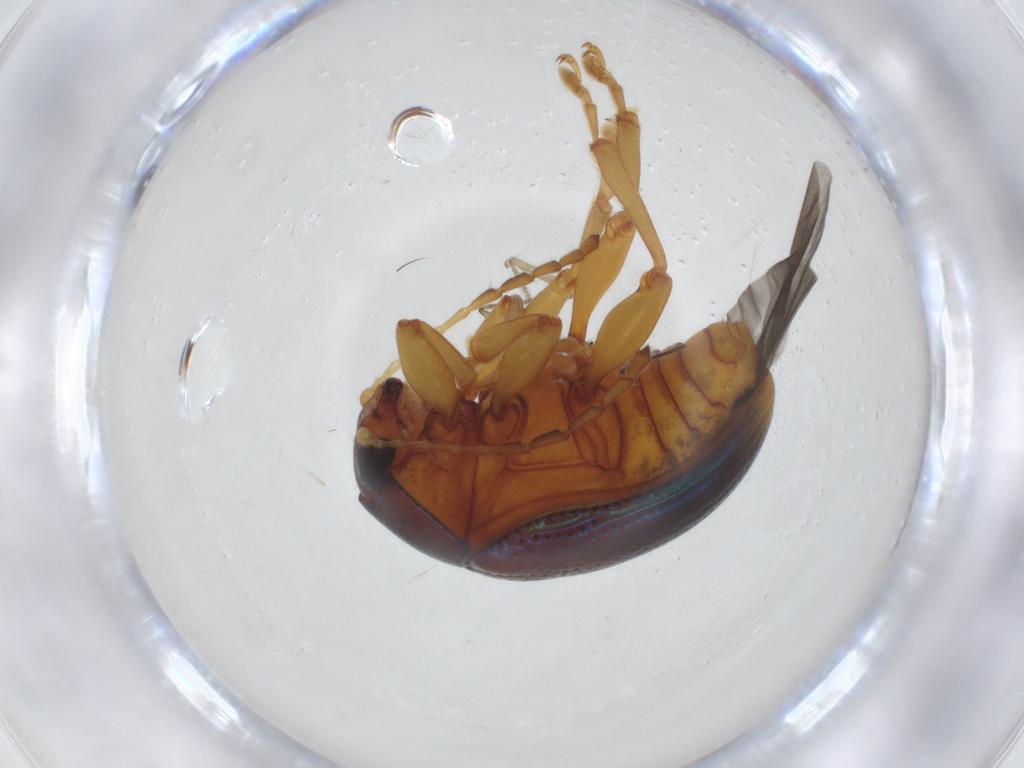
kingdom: Animalia
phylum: Arthropoda
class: Insecta
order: Coleoptera
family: Chrysomelidae
